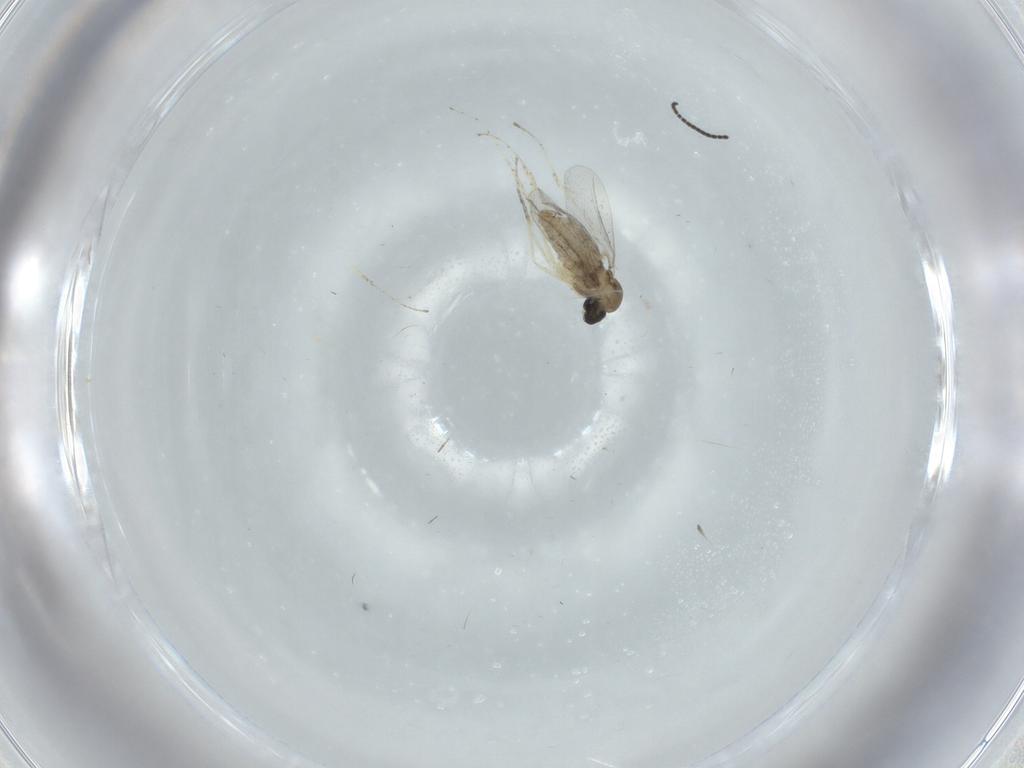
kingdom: Animalia
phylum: Arthropoda
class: Insecta
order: Diptera
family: Cecidomyiidae
